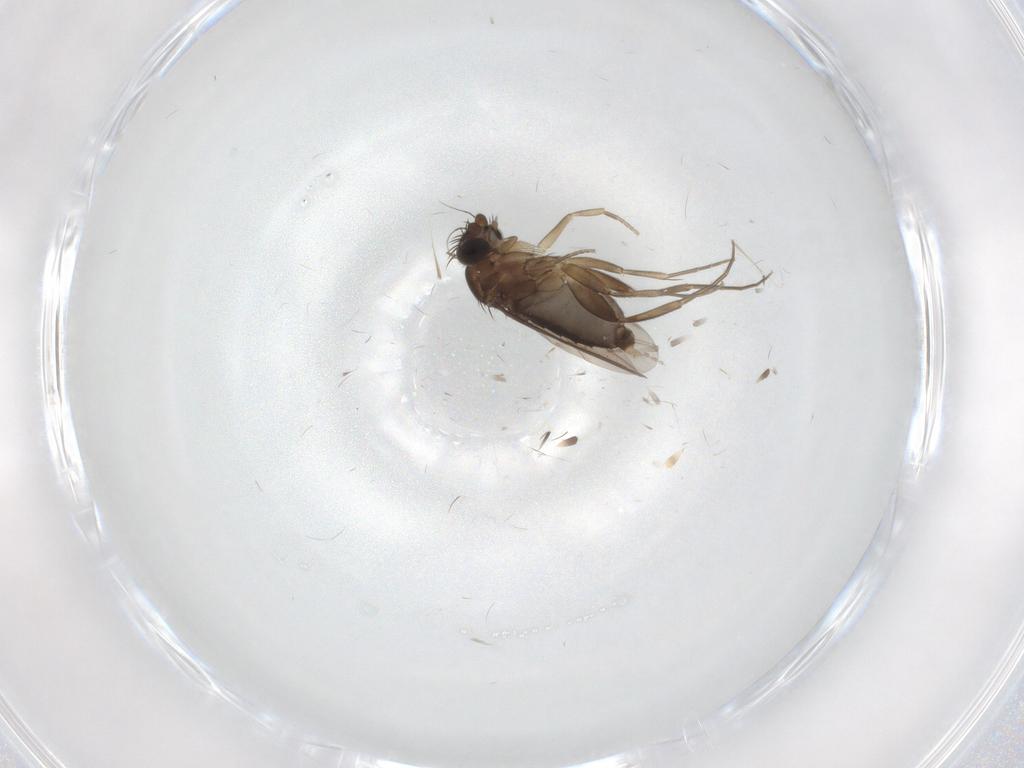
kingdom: Animalia
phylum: Arthropoda
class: Insecta
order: Diptera
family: Phoridae
